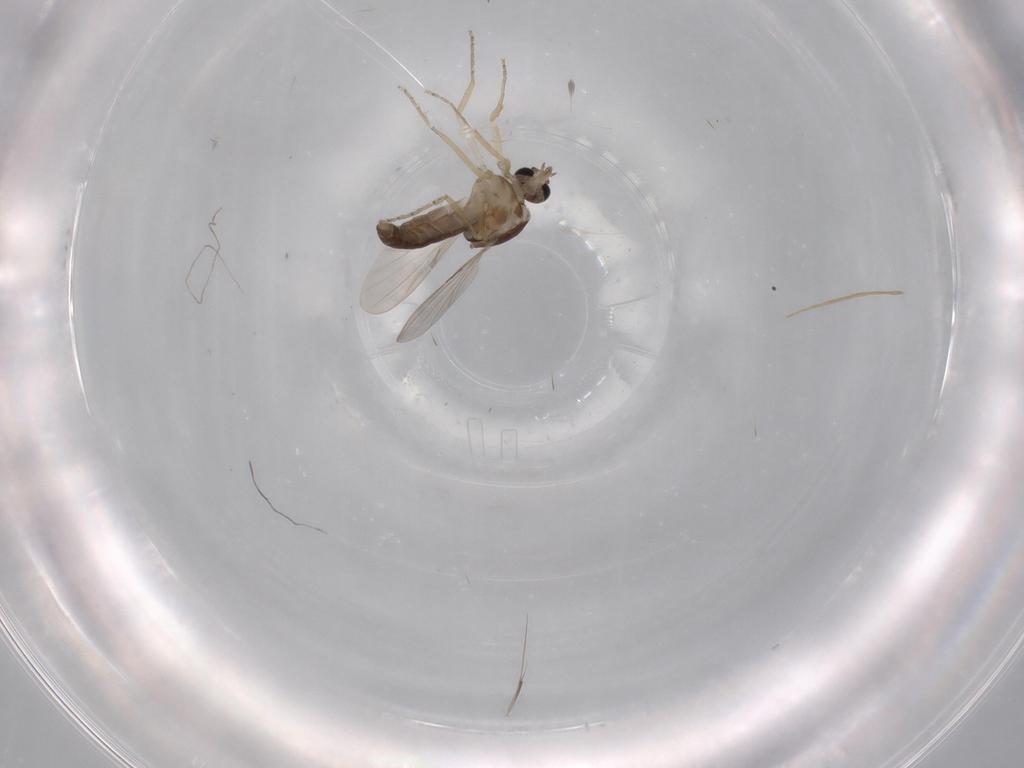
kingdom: Animalia
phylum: Arthropoda
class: Insecta
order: Diptera
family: Ceratopogonidae
